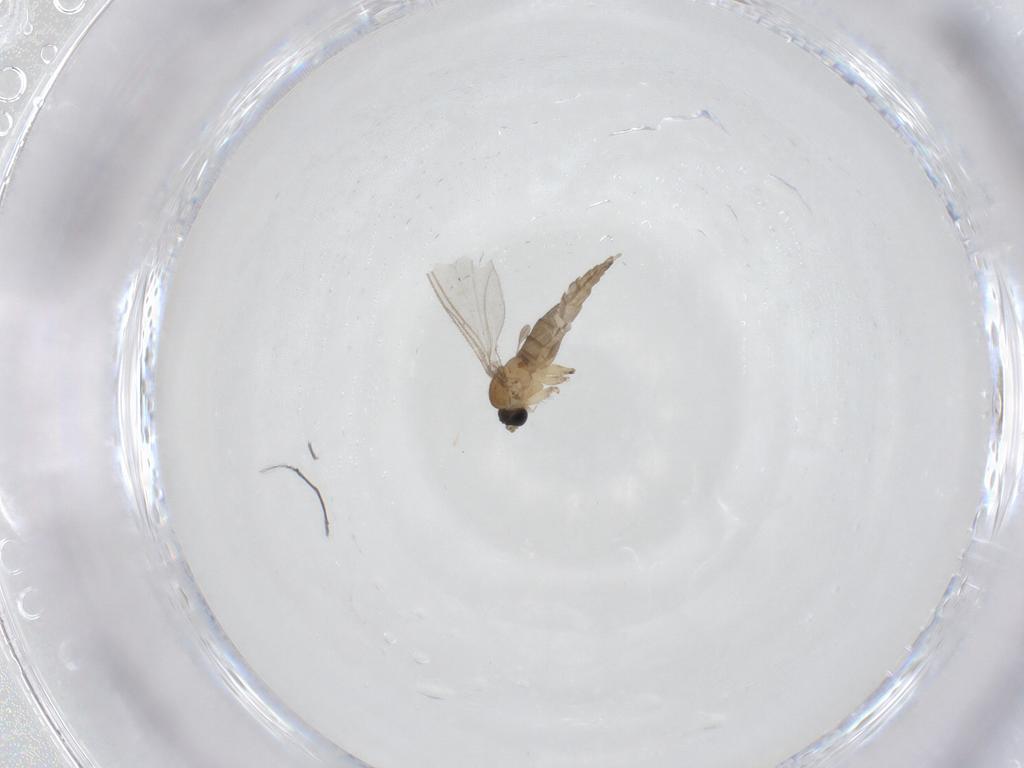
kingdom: Animalia
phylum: Arthropoda
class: Insecta
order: Diptera
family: Sciaridae
